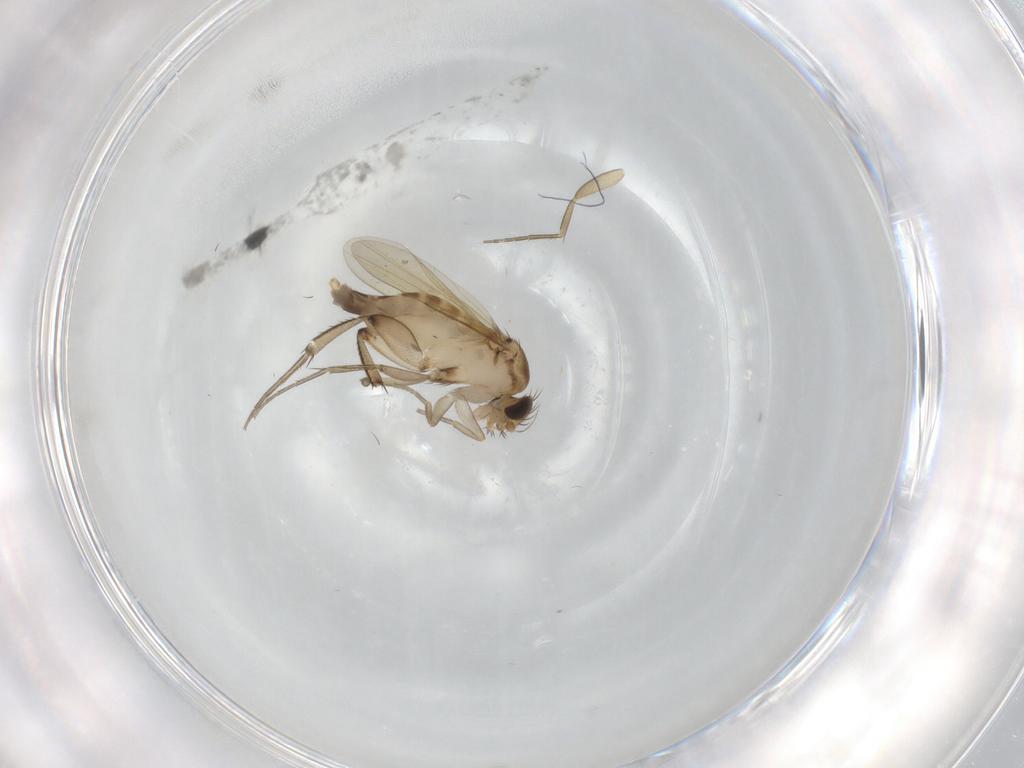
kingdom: Animalia
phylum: Arthropoda
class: Insecta
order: Diptera
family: Phoridae
